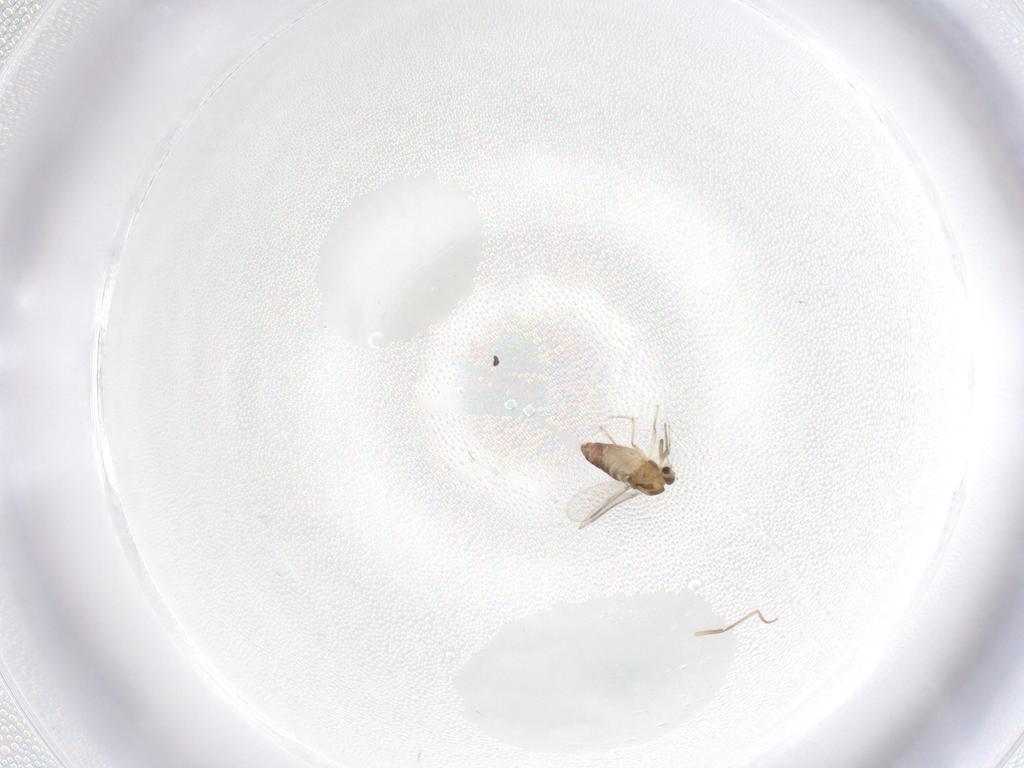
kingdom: Animalia
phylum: Arthropoda
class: Insecta
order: Diptera
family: Chironomidae
